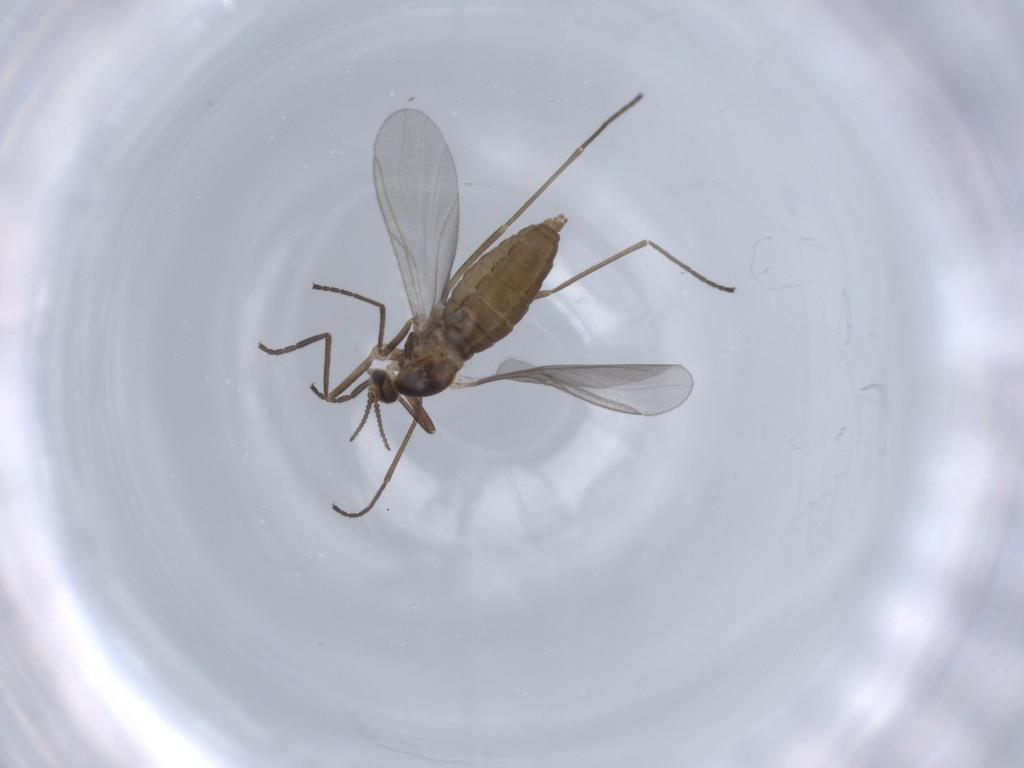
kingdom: Animalia
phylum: Arthropoda
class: Insecta
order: Diptera
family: Cecidomyiidae
